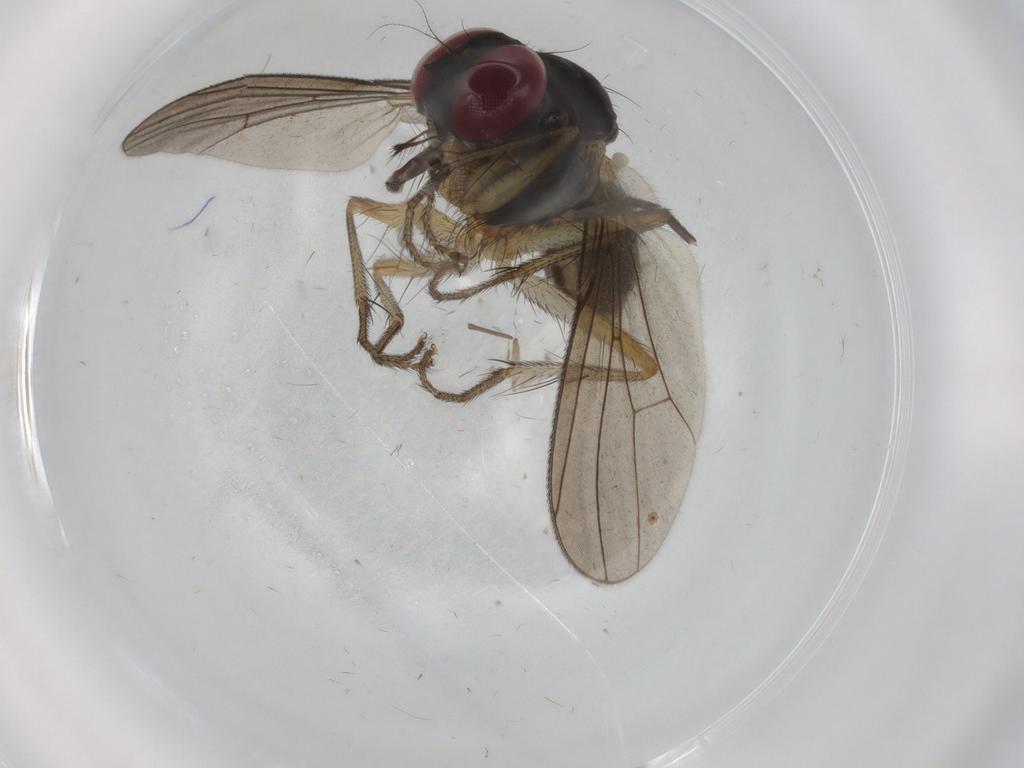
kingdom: Animalia
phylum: Arthropoda
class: Insecta
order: Diptera
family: Anthomyiidae
